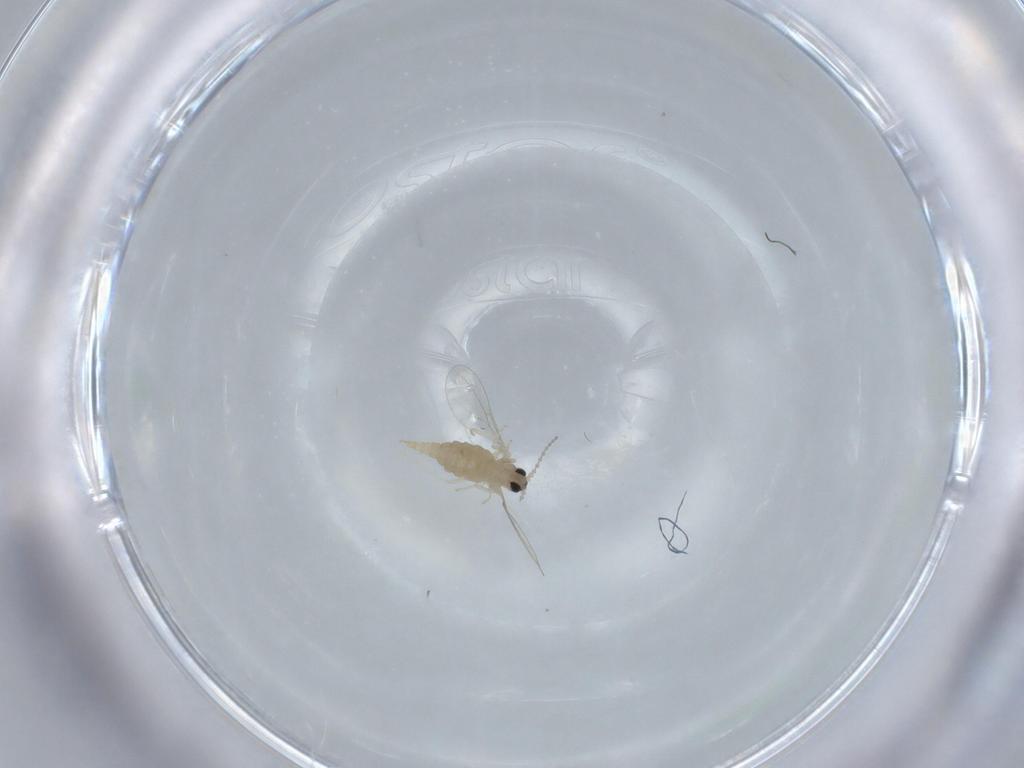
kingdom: Animalia
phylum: Arthropoda
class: Insecta
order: Diptera
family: Cecidomyiidae
